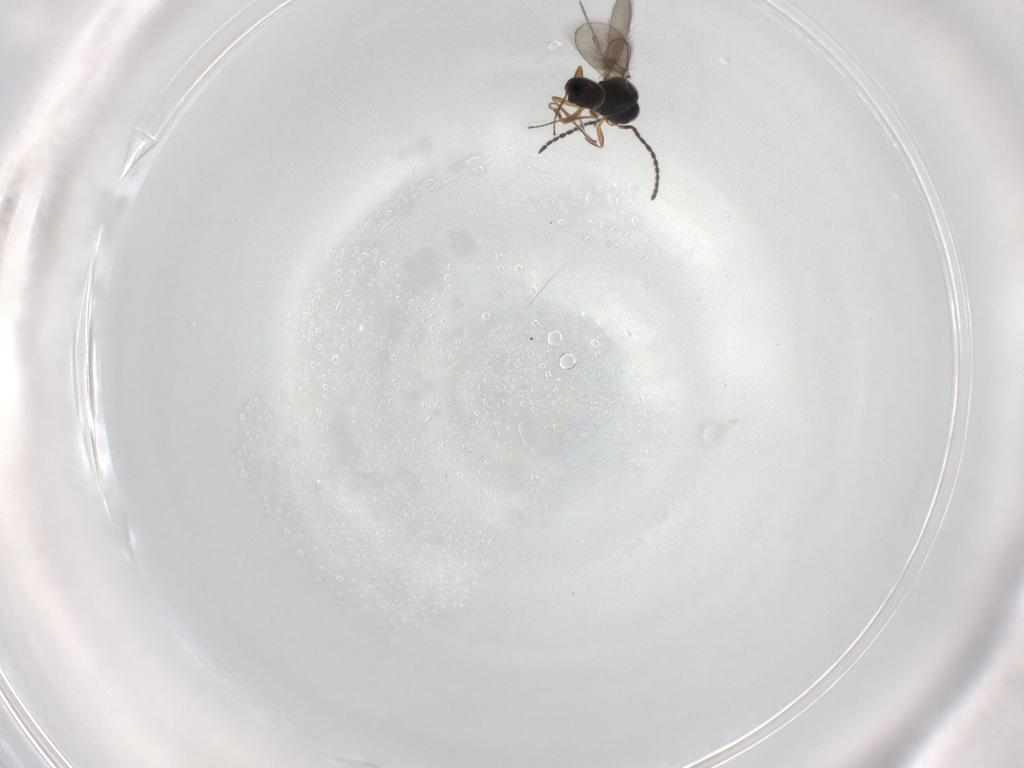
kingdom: Animalia
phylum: Arthropoda
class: Insecta
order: Hymenoptera
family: Scelionidae
